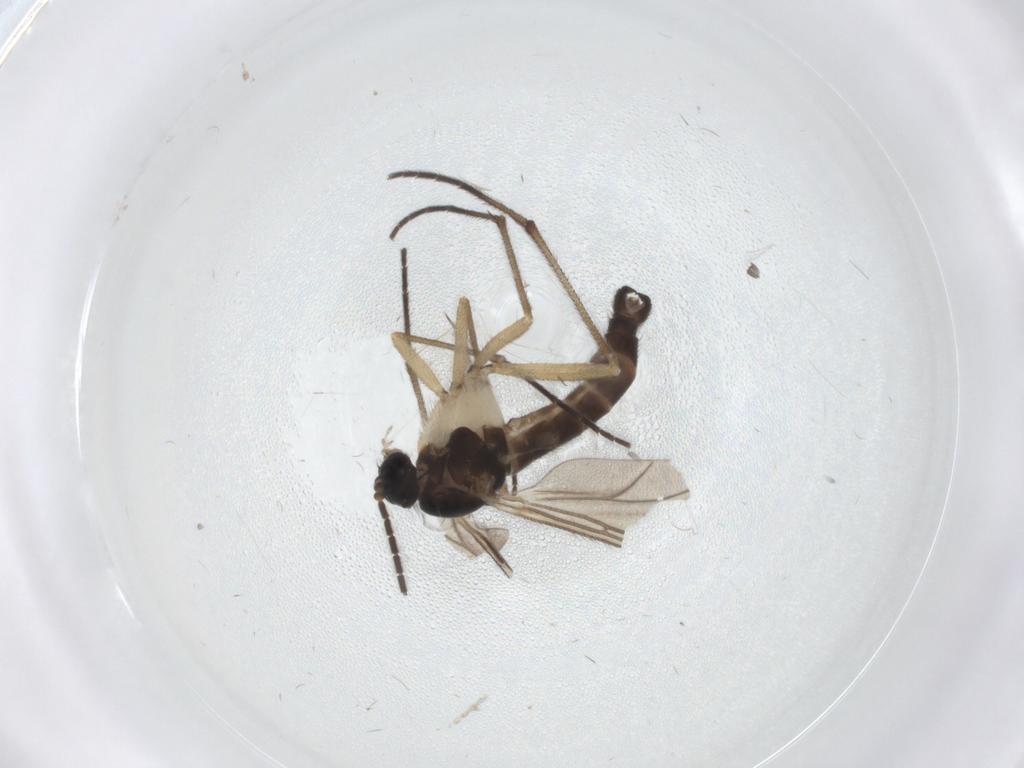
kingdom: Animalia
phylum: Arthropoda
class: Insecta
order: Diptera
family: Sciaridae
